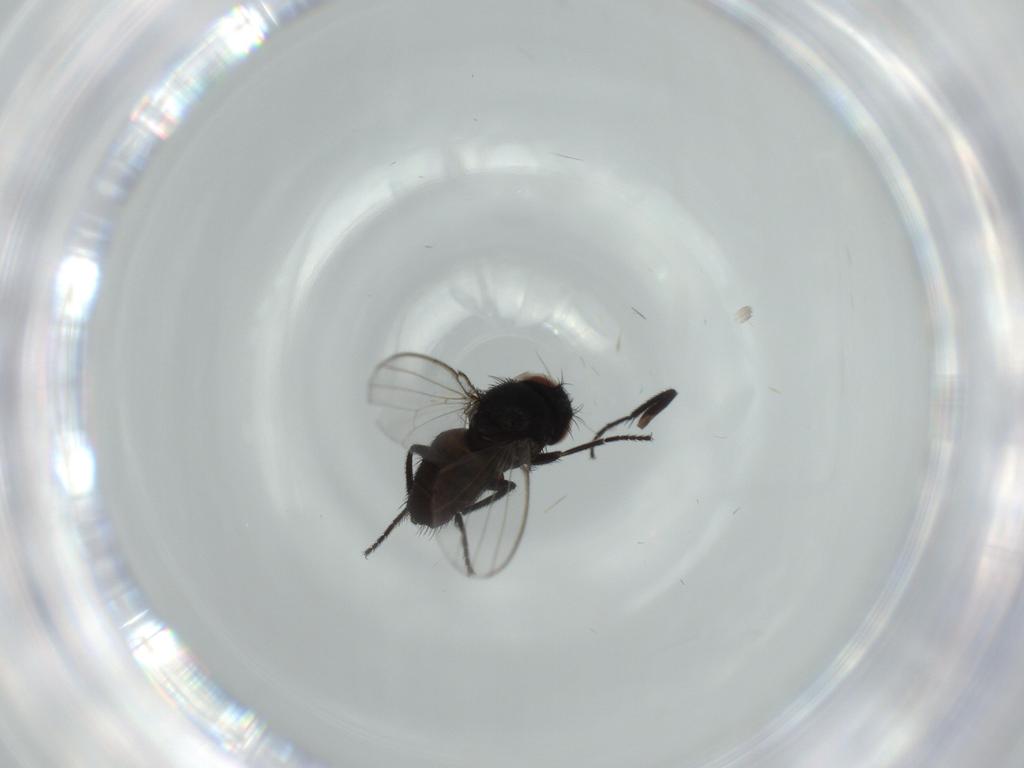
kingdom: Animalia
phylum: Arthropoda
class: Insecta
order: Diptera
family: Milichiidae
